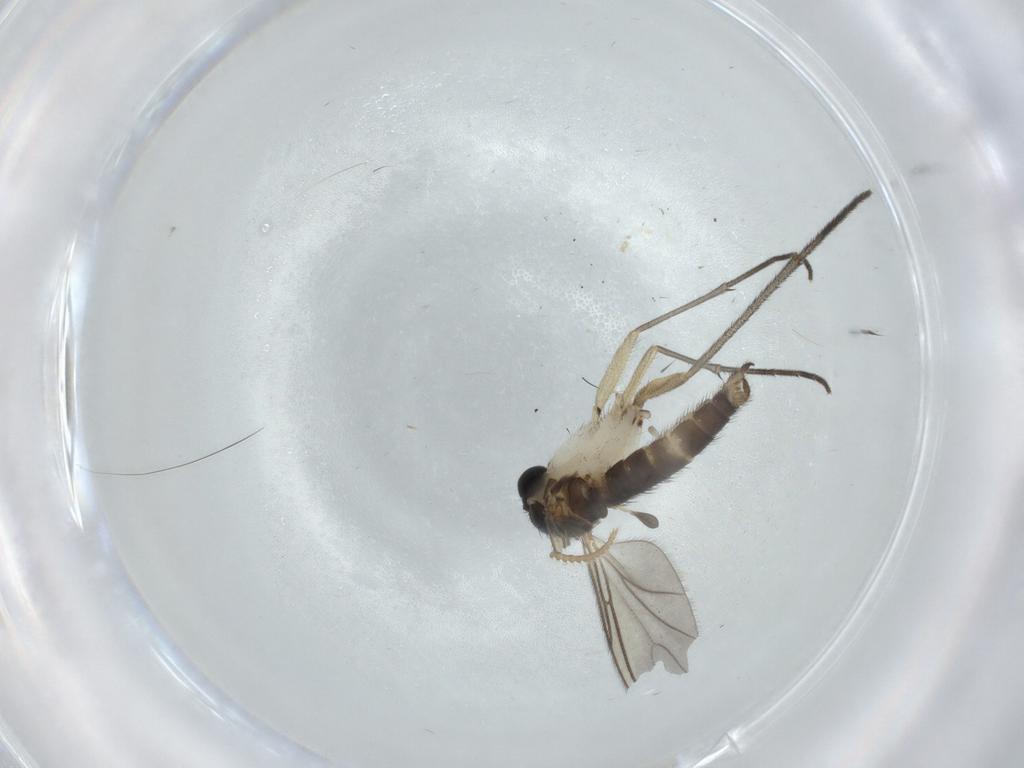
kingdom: Animalia
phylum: Arthropoda
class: Insecta
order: Diptera
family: Sciaridae
